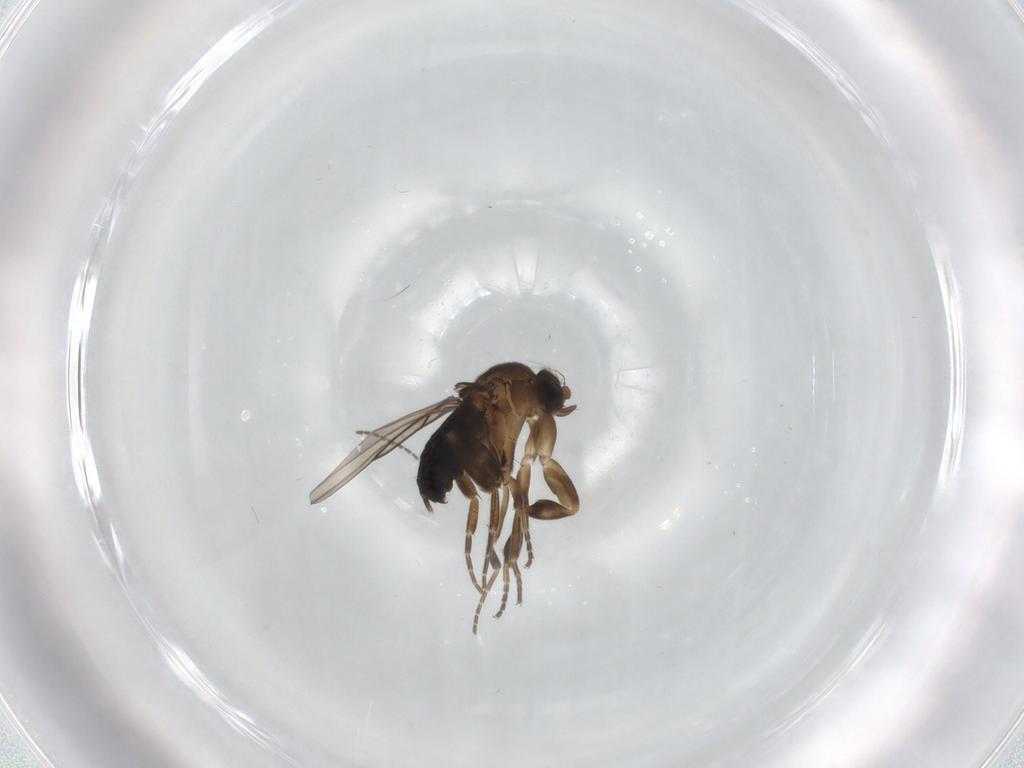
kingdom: Animalia
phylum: Arthropoda
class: Insecta
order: Diptera
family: Sciaridae
